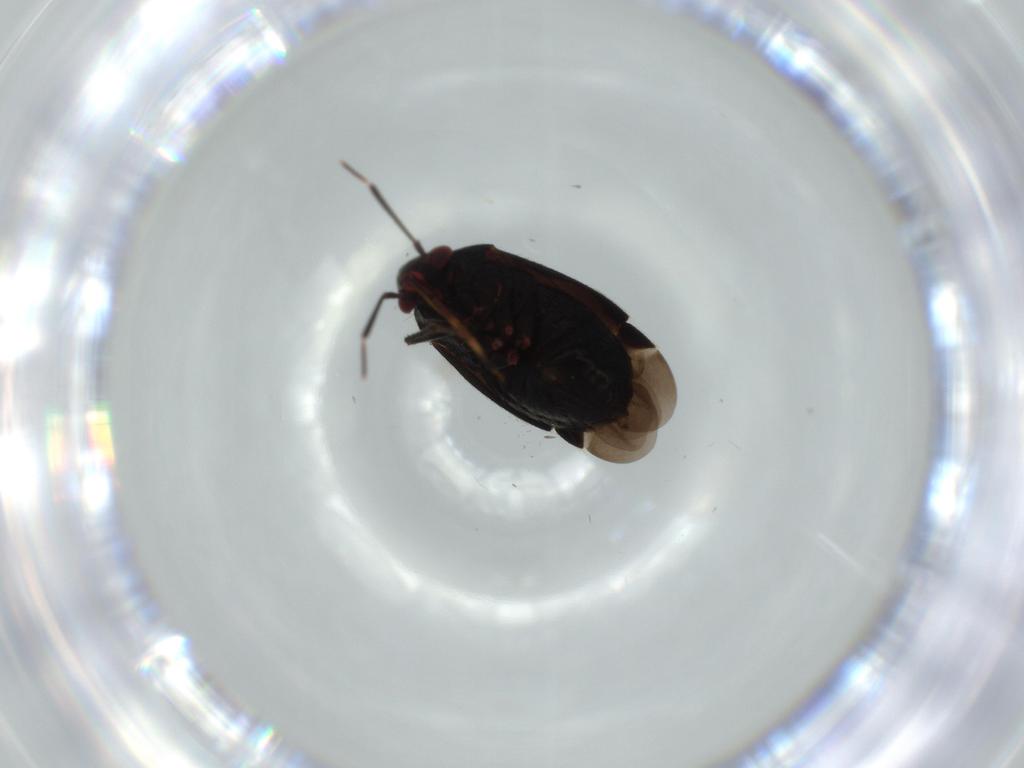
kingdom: Animalia
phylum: Arthropoda
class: Insecta
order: Hemiptera
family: Miridae
